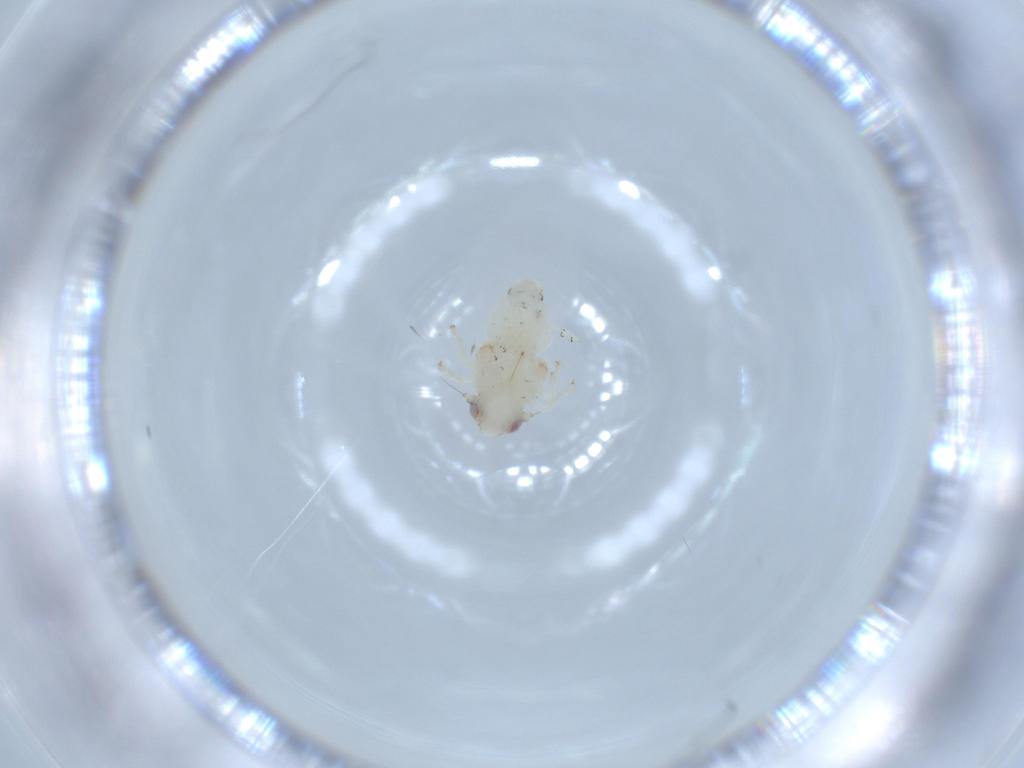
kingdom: Animalia
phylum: Arthropoda
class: Insecta
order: Hemiptera
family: Nogodinidae
